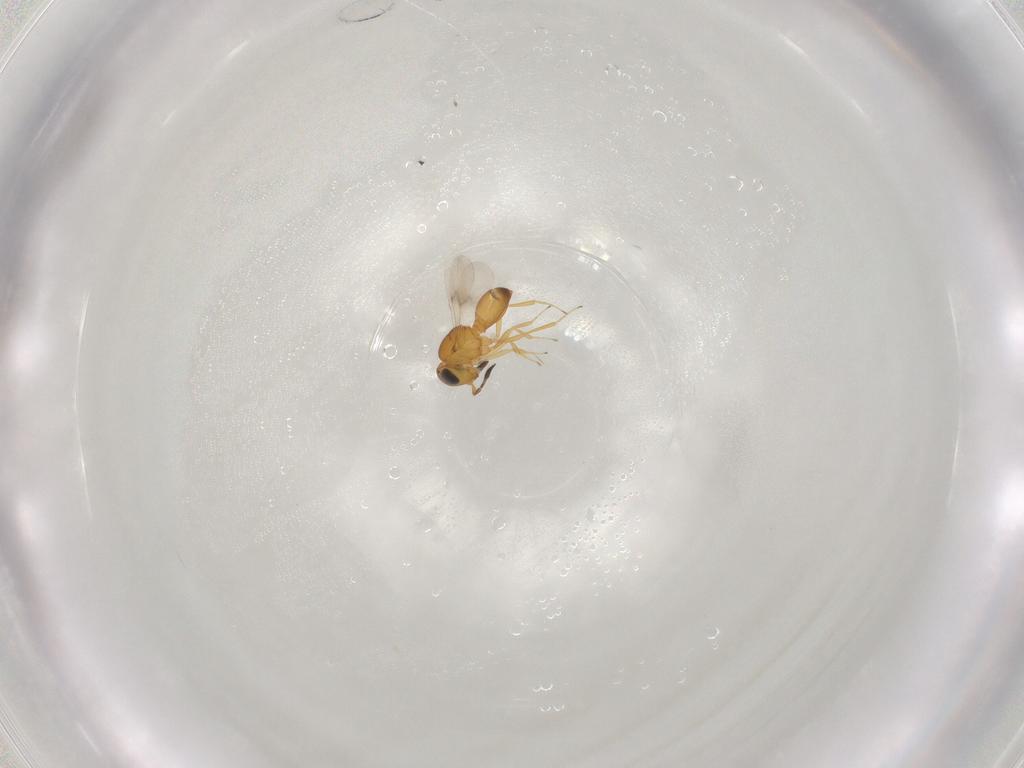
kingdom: Animalia
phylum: Arthropoda
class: Insecta
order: Hymenoptera
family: Scelionidae
